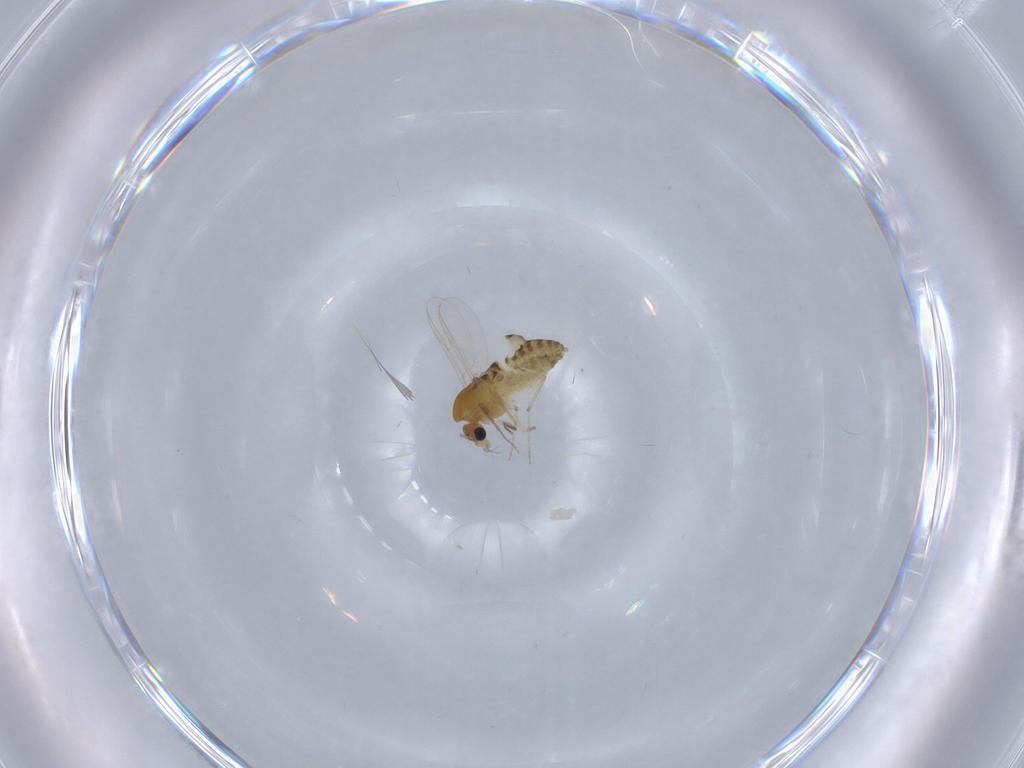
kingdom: Animalia
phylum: Arthropoda
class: Insecta
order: Diptera
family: Chironomidae
